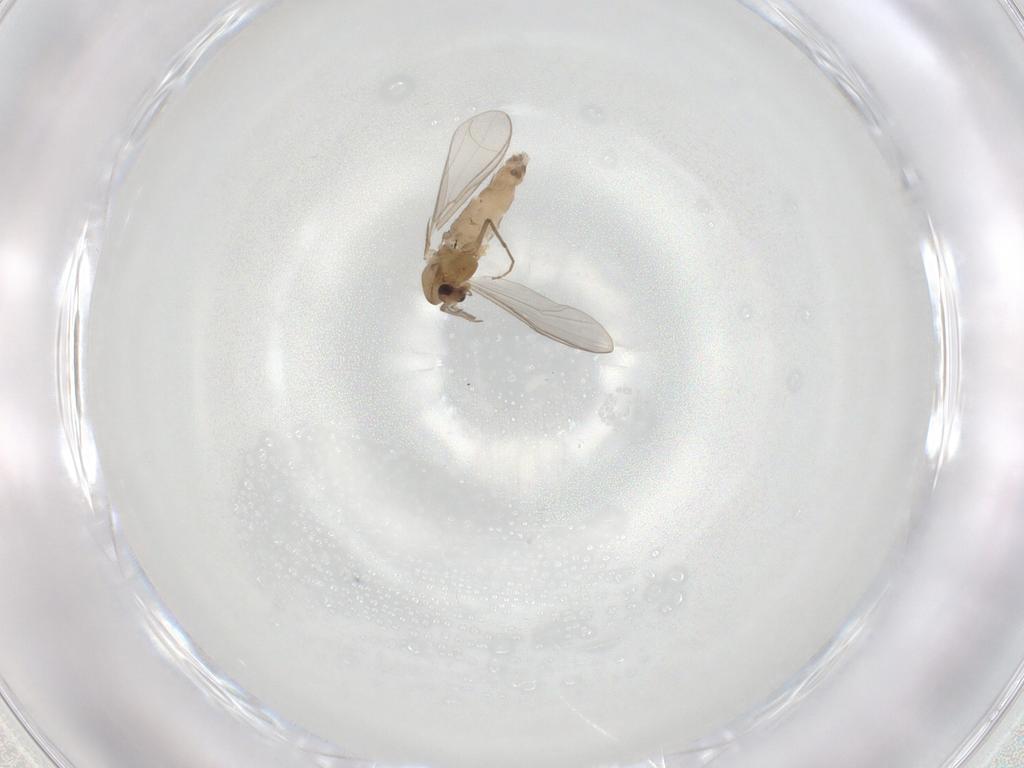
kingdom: Animalia
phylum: Arthropoda
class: Insecta
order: Diptera
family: Chironomidae
